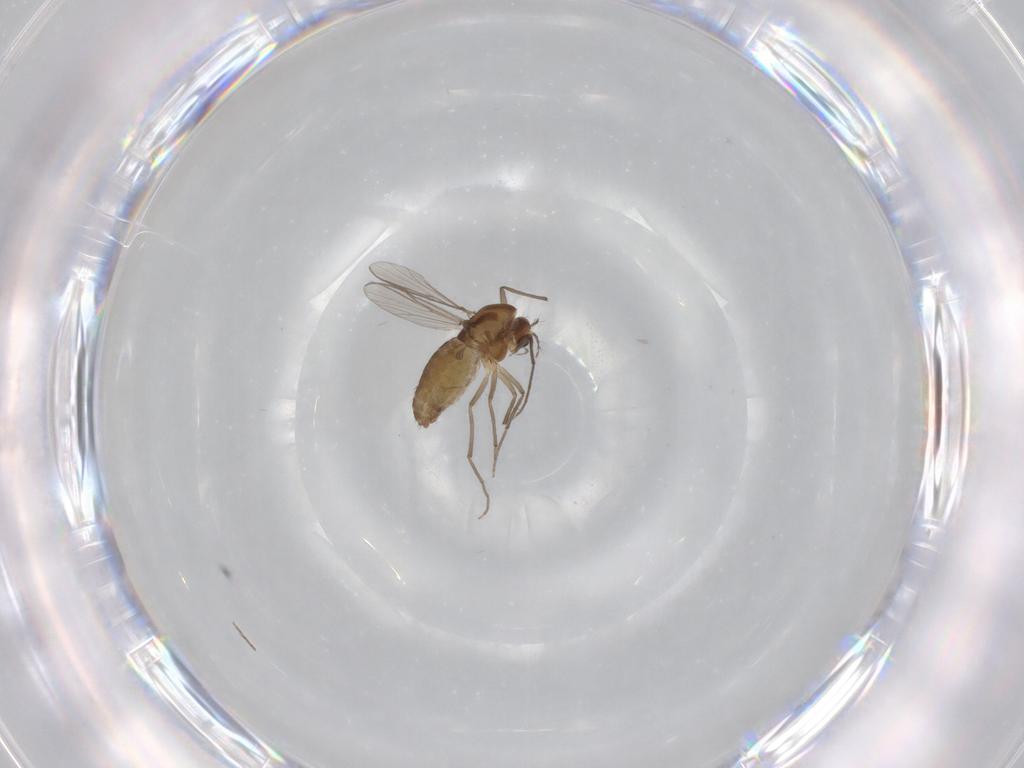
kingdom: Animalia
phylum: Arthropoda
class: Insecta
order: Diptera
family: Chironomidae
